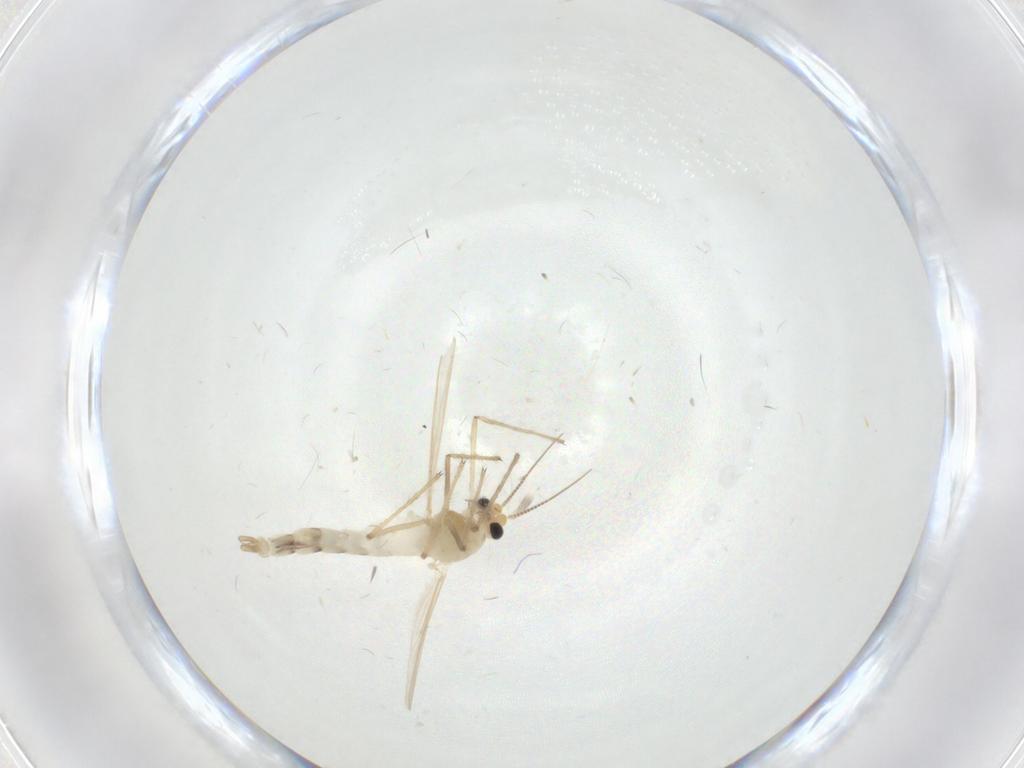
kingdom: Animalia
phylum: Arthropoda
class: Insecta
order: Diptera
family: Chironomidae
